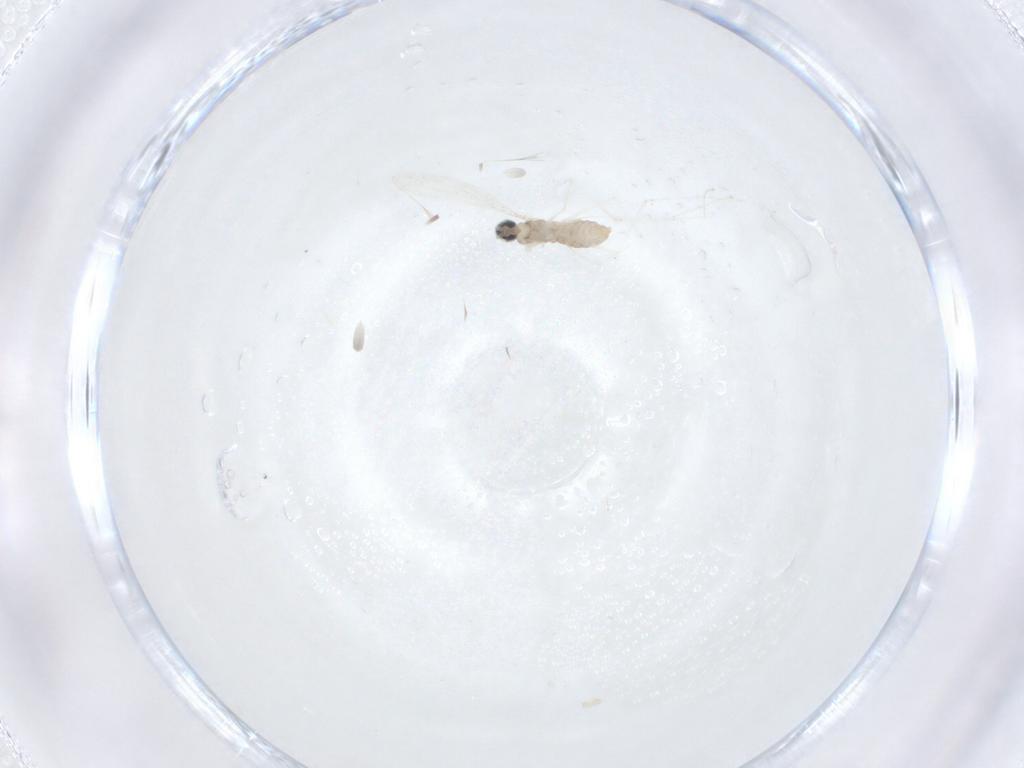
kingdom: Animalia
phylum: Arthropoda
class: Insecta
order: Diptera
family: Cecidomyiidae
